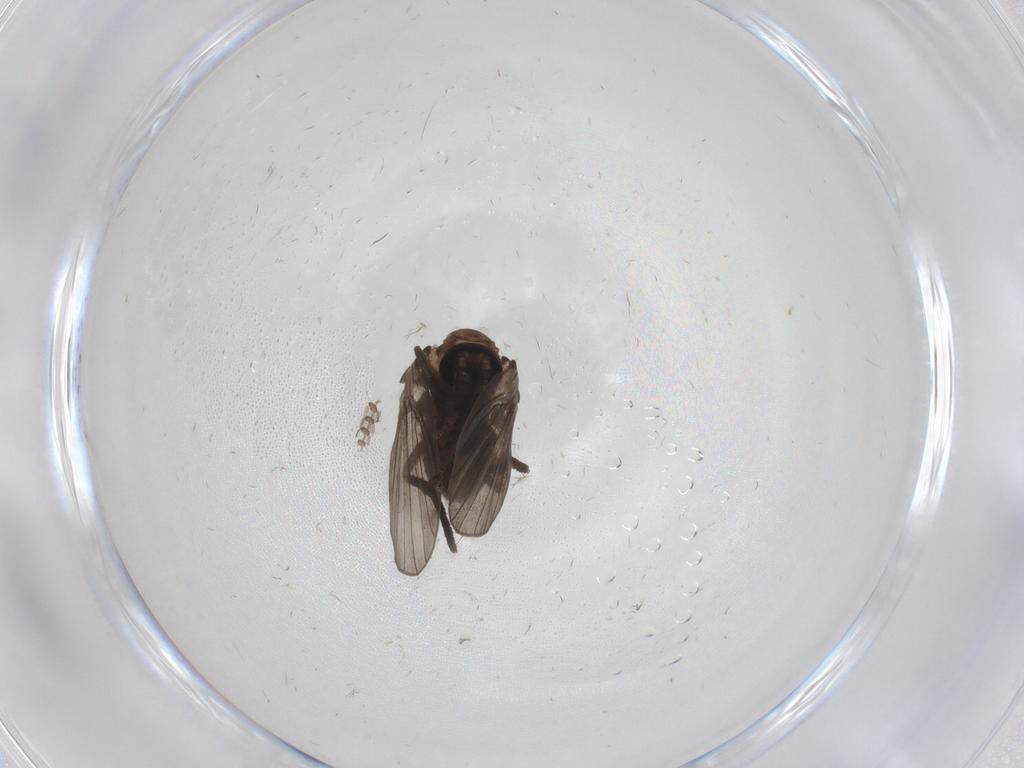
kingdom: Animalia
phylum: Arthropoda
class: Insecta
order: Diptera
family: Psychodidae
